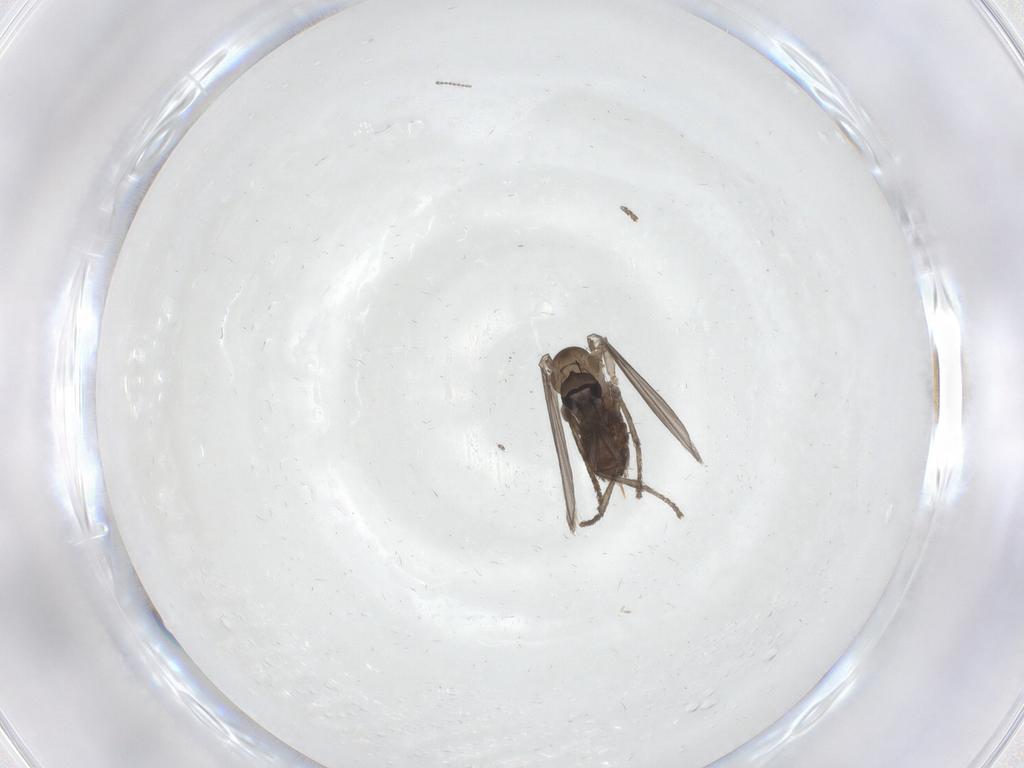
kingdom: Animalia
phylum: Arthropoda
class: Insecta
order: Diptera
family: Psychodidae
